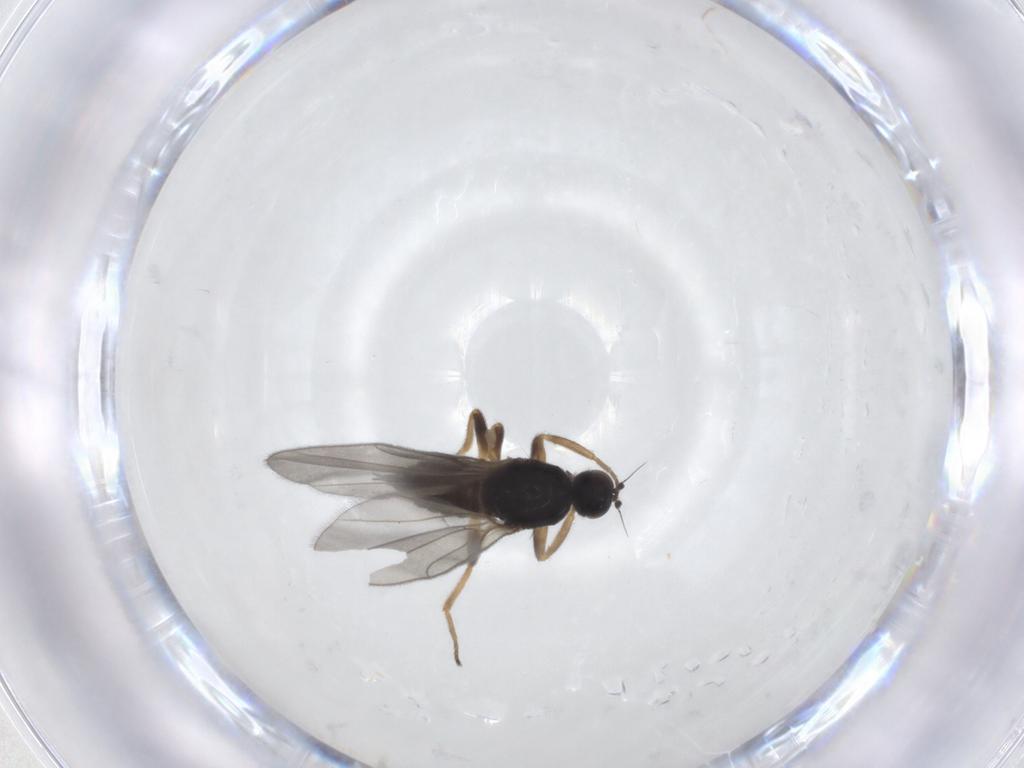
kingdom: Animalia
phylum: Arthropoda
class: Insecta
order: Diptera
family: Hybotidae
